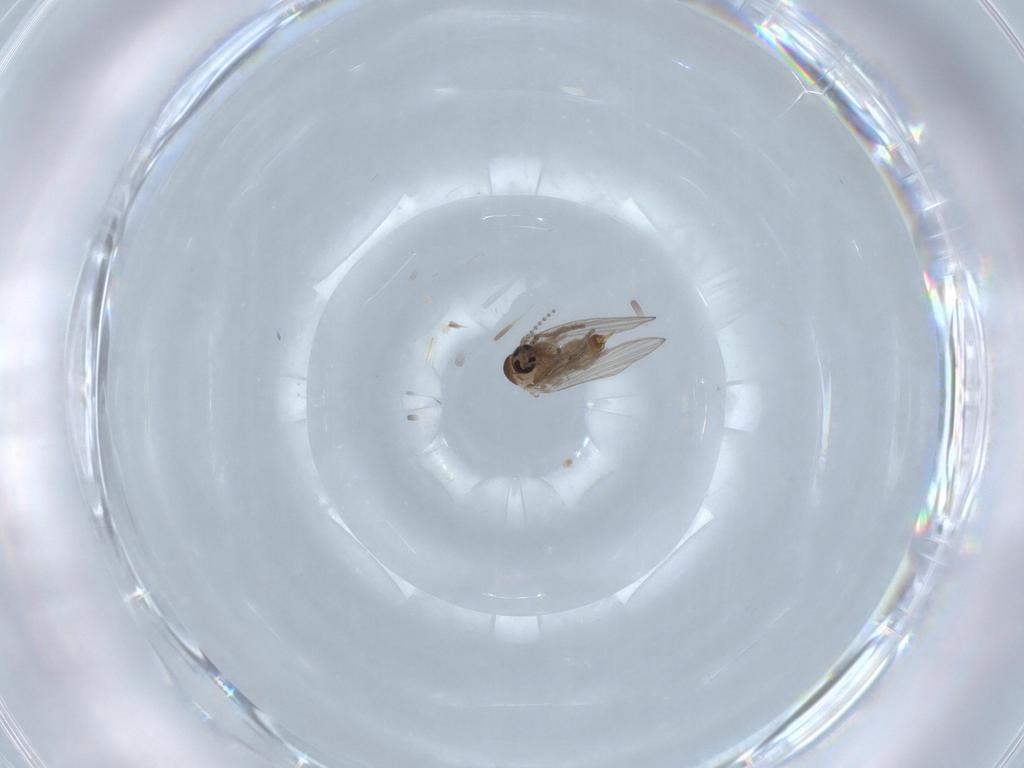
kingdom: Animalia
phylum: Arthropoda
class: Insecta
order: Diptera
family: Psychodidae
